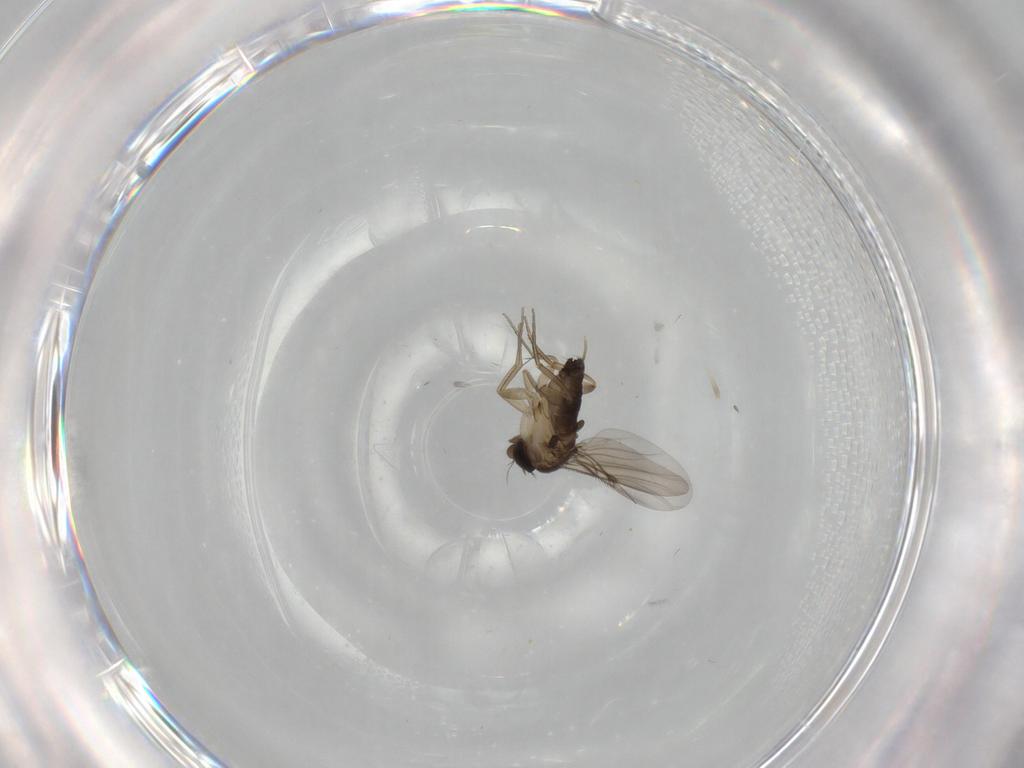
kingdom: Animalia
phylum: Arthropoda
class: Insecta
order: Diptera
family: Phoridae
